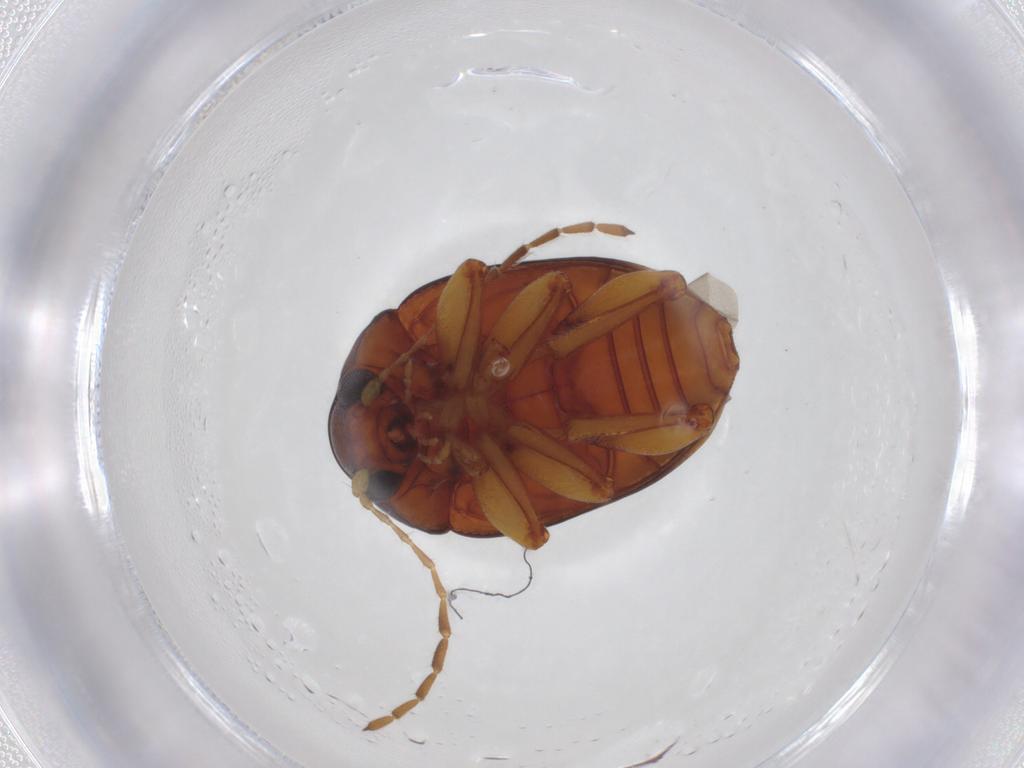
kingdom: Animalia
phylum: Arthropoda
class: Insecta
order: Coleoptera
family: Chrysomelidae
